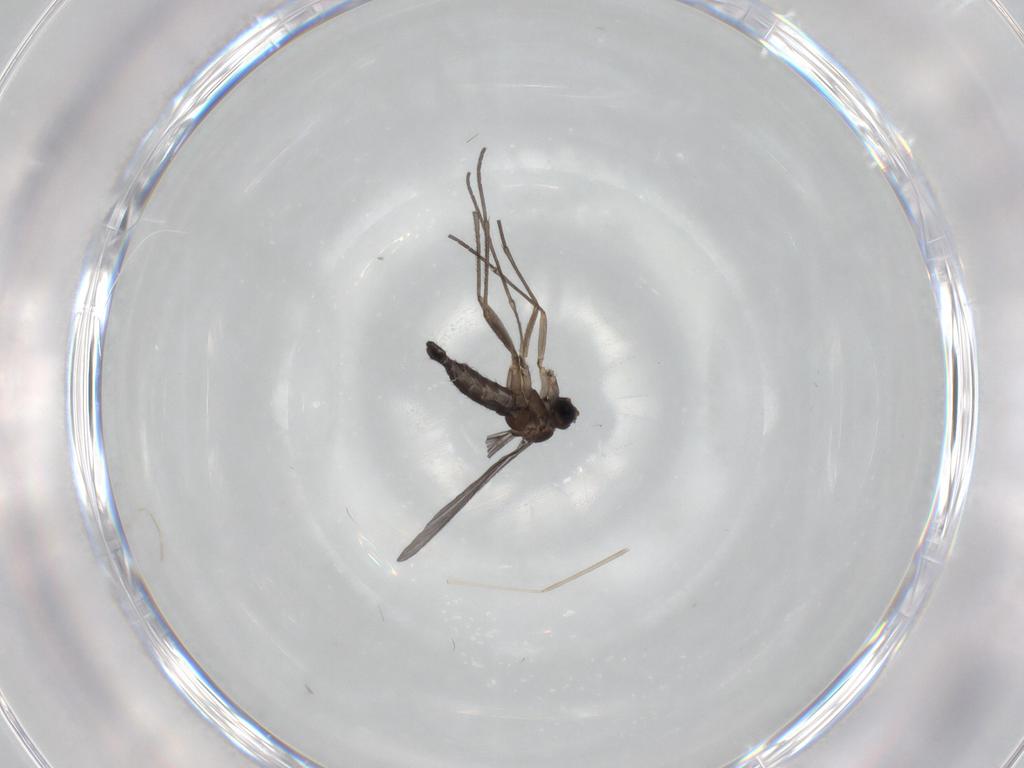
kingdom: Animalia
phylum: Arthropoda
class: Insecta
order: Diptera
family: Sciaridae
